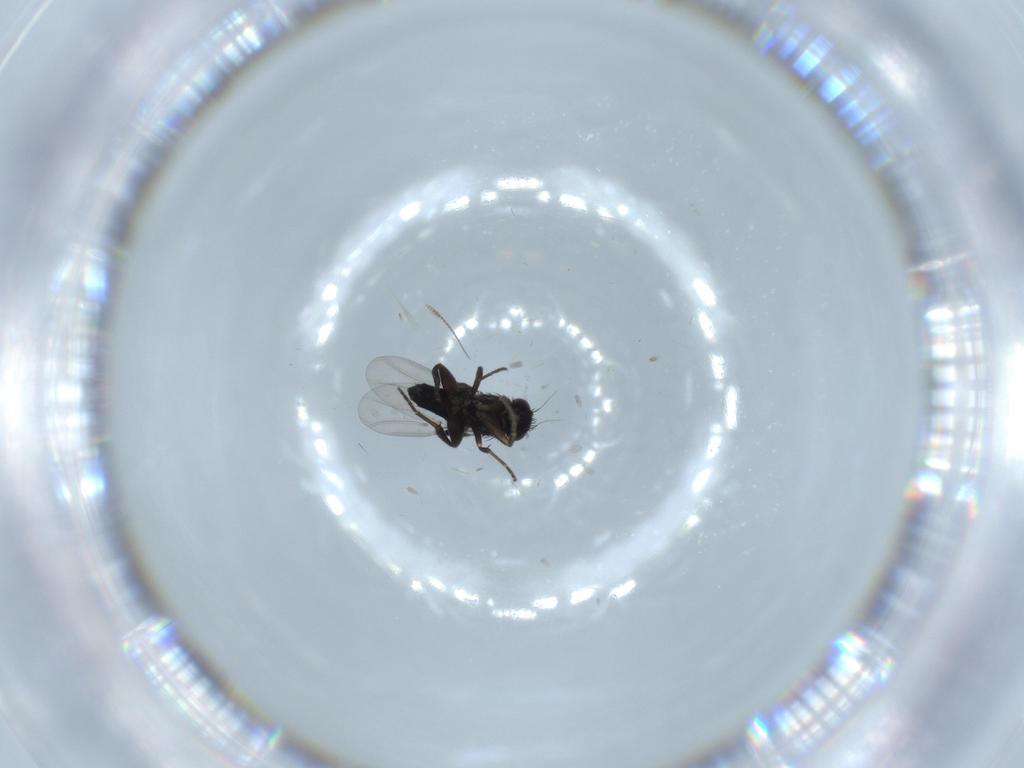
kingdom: Animalia
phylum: Arthropoda
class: Insecta
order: Diptera
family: Phoridae
